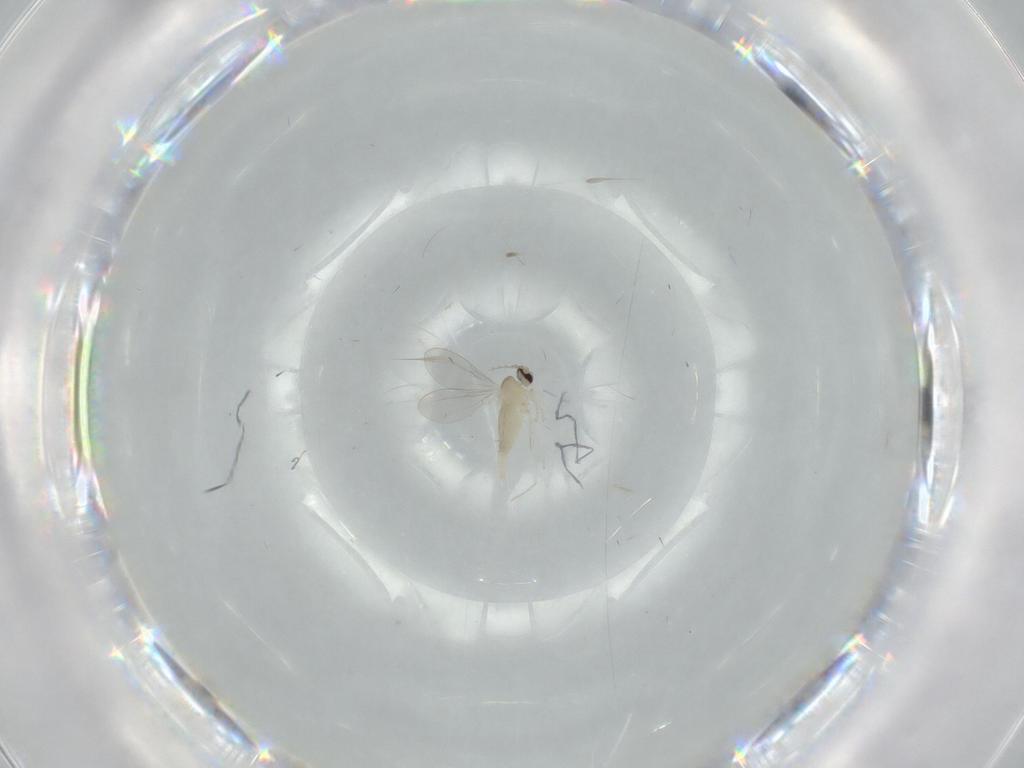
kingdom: Animalia
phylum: Arthropoda
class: Insecta
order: Diptera
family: Cecidomyiidae
